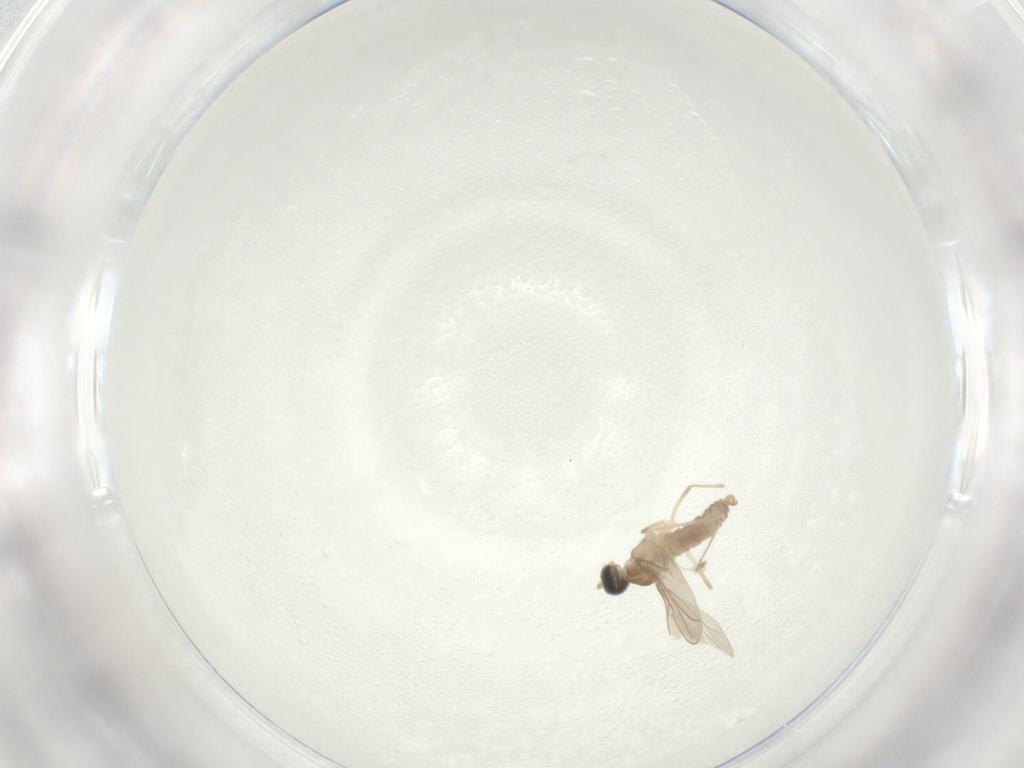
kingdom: Animalia
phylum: Arthropoda
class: Insecta
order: Diptera
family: Cecidomyiidae
